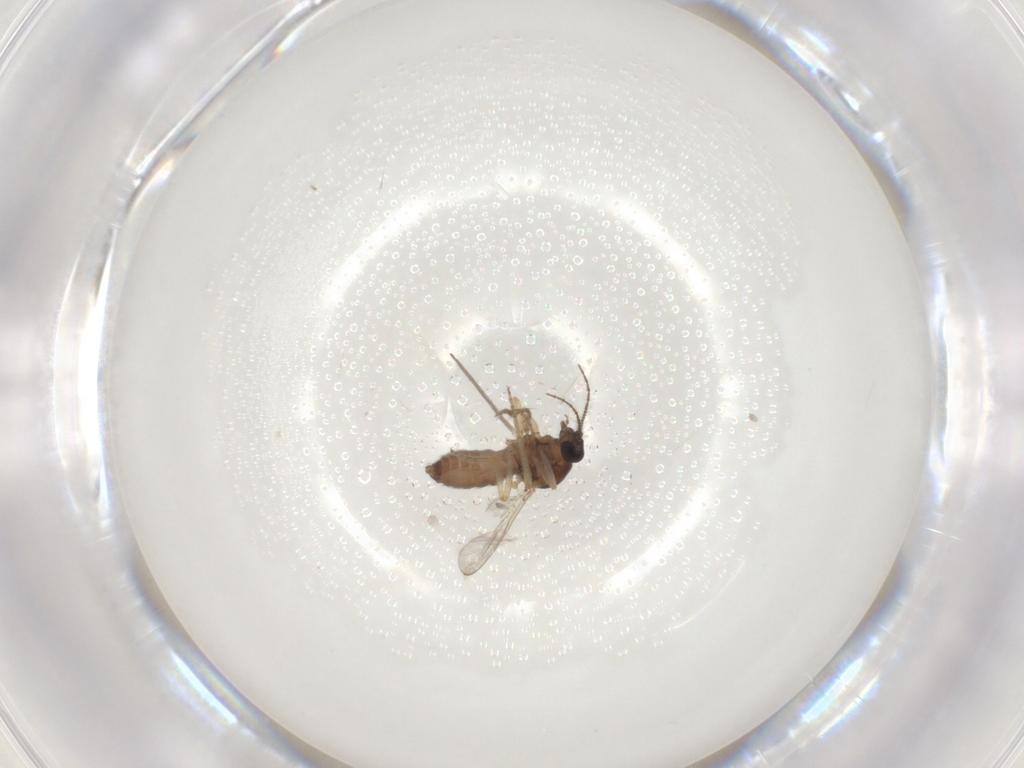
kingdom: Animalia
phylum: Arthropoda
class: Insecta
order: Diptera
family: Ceratopogonidae
